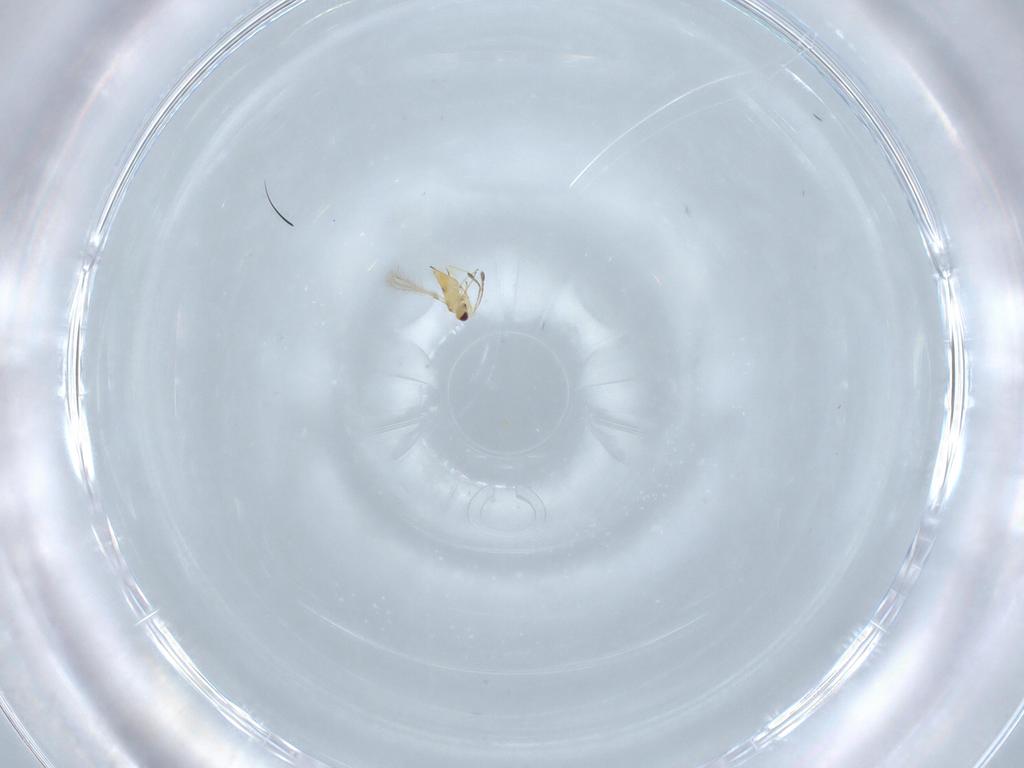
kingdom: Animalia
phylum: Arthropoda
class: Insecta
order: Hymenoptera
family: Mymaridae
